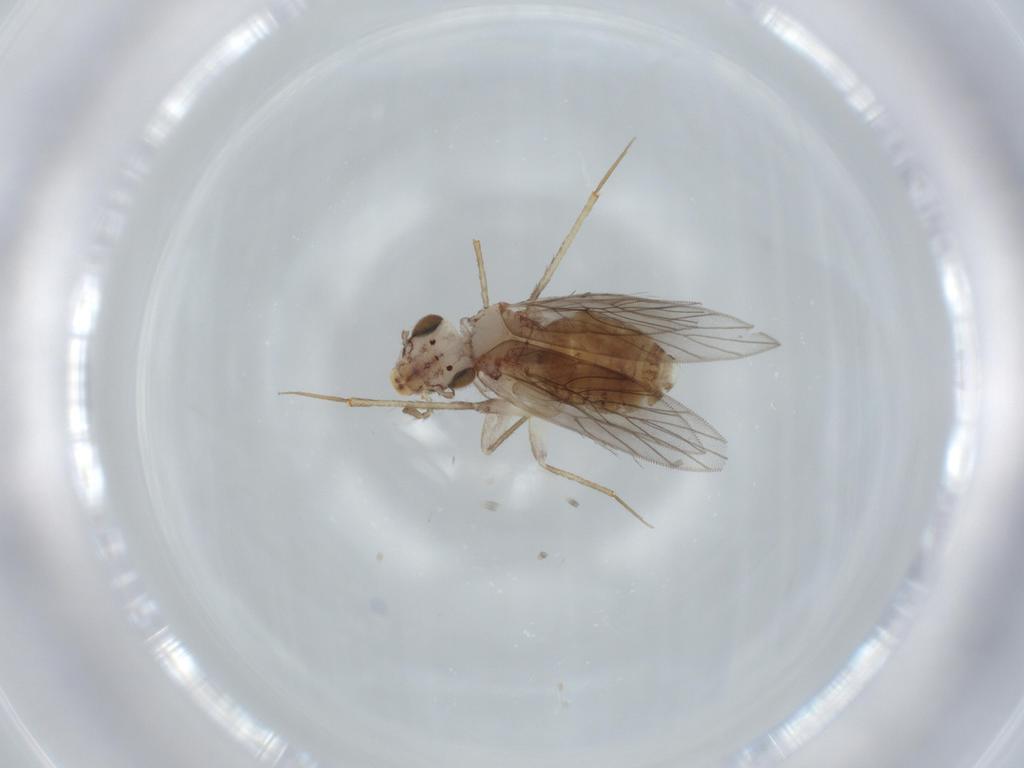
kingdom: Animalia
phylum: Arthropoda
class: Insecta
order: Psocodea
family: Lepidopsocidae
